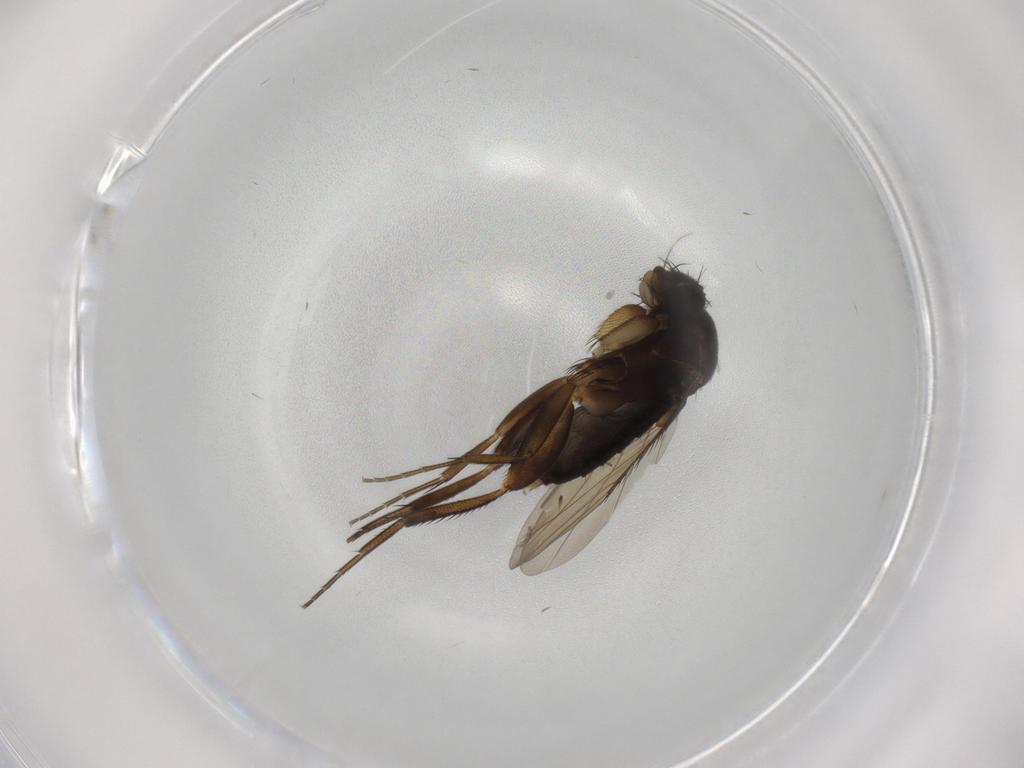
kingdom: Animalia
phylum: Arthropoda
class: Insecta
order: Diptera
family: Phoridae
